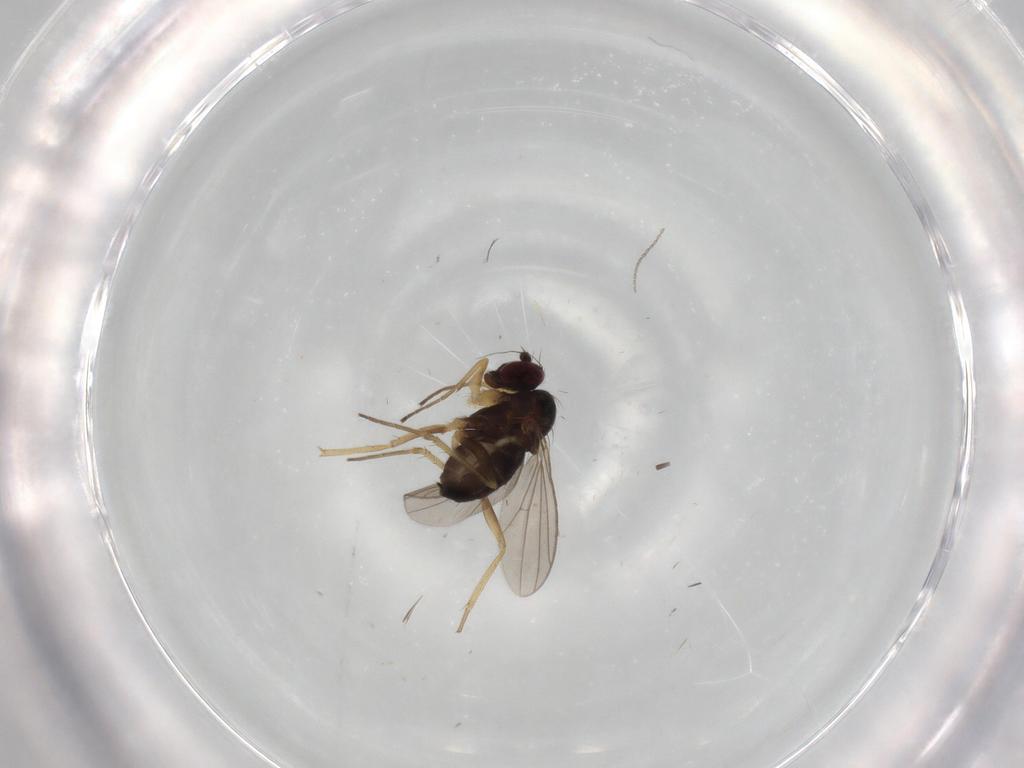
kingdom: Animalia
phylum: Arthropoda
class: Insecta
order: Diptera
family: Dolichopodidae
